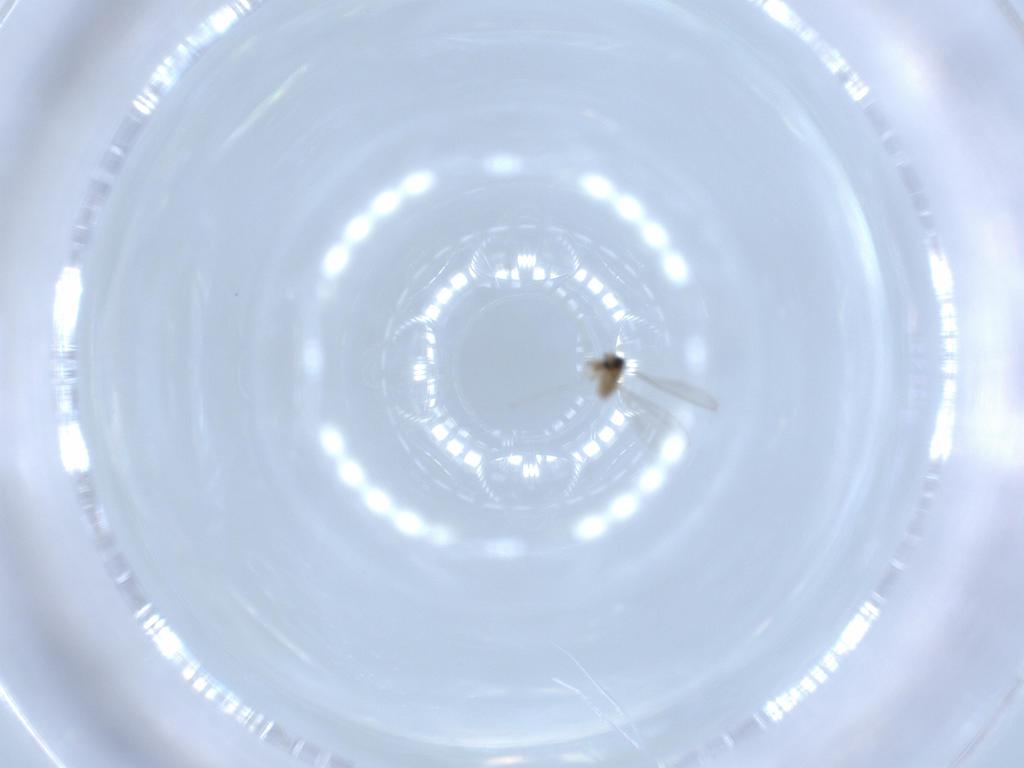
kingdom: Animalia
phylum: Arthropoda
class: Insecta
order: Diptera
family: Cecidomyiidae
